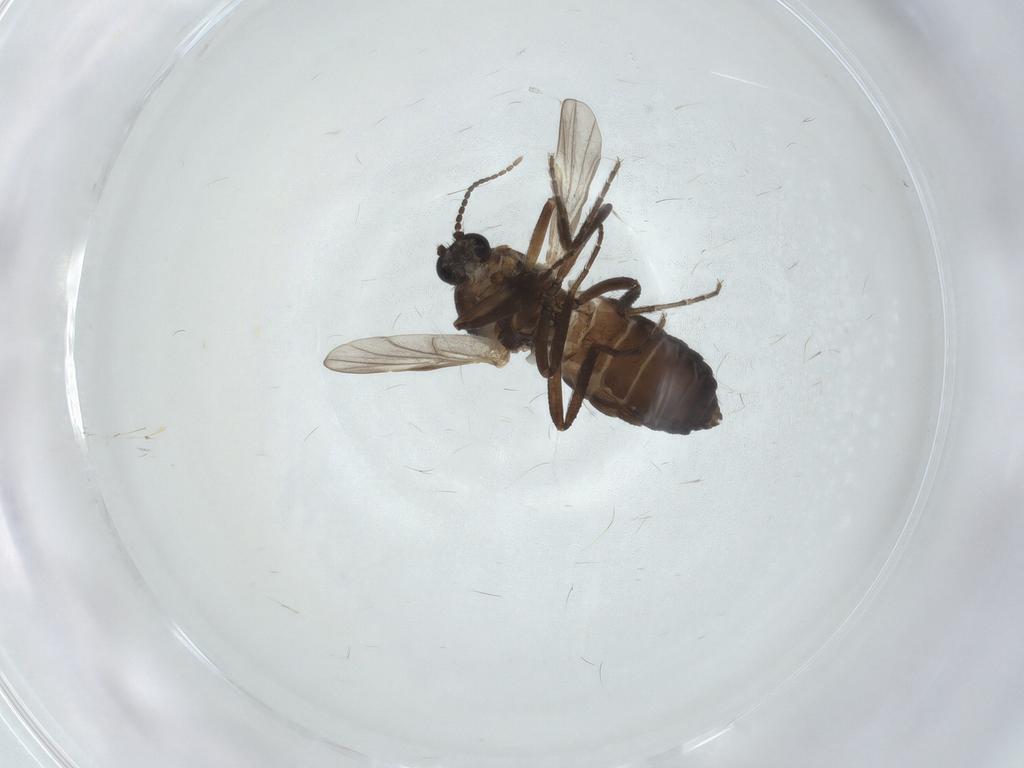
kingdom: Animalia
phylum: Arthropoda
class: Insecta
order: Diptera
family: Ceratopogonidae
